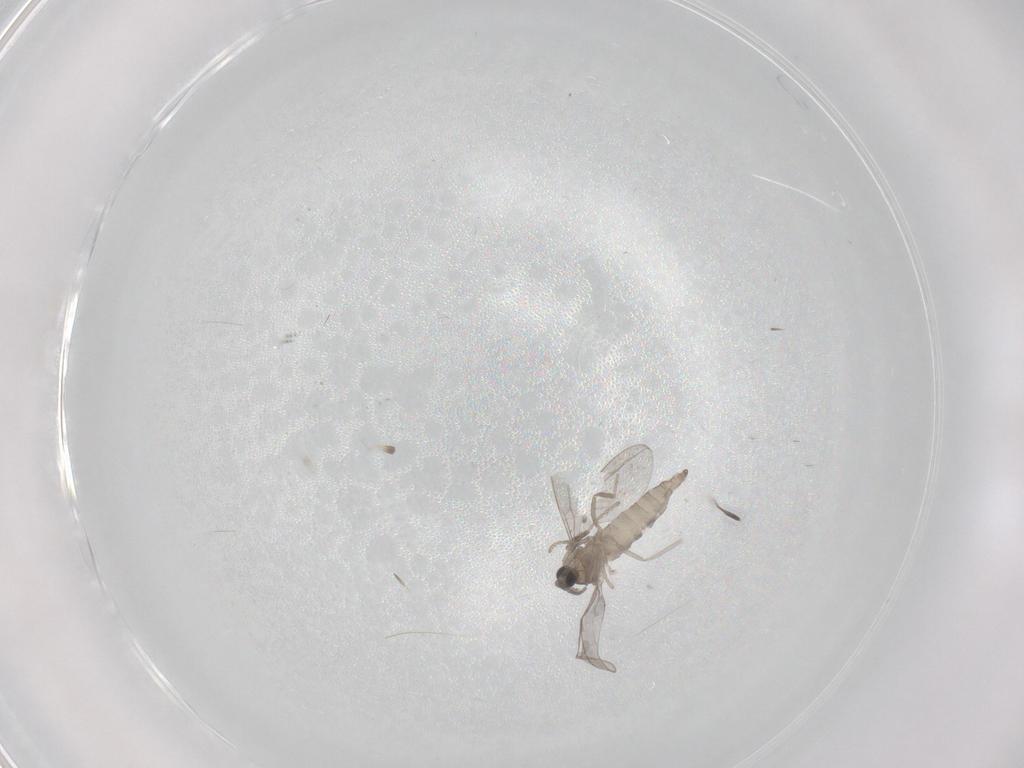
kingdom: Animalia
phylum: Arthropoda
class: Insecta
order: Diptera
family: Cecidomyiidae
